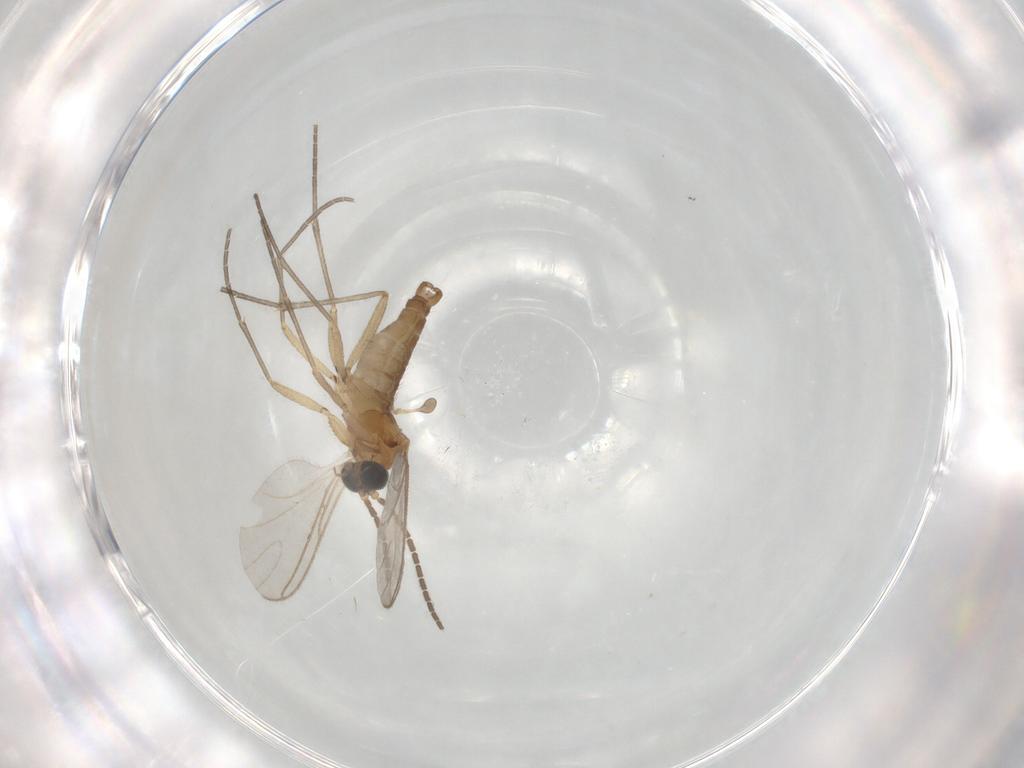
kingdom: Animalia
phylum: Arthropoda
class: Insecta
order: Diptera
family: Sciaridae
